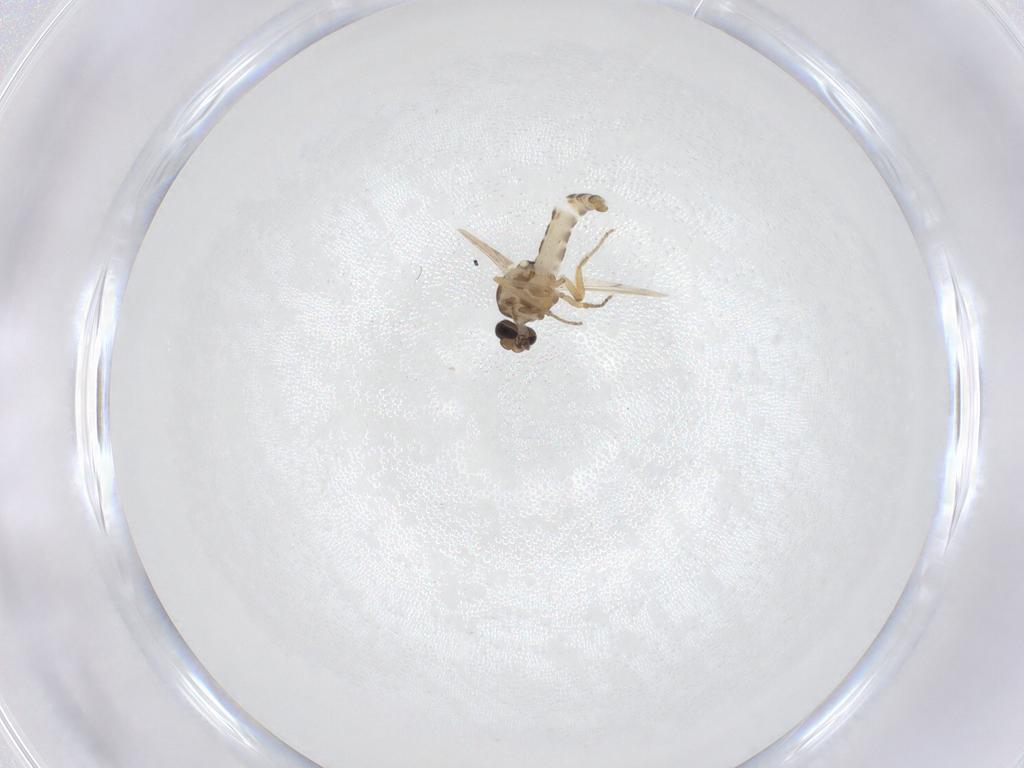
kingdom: Animalia
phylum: Arthropoda
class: Insecta
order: Diptera
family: Ceratopogonidae
